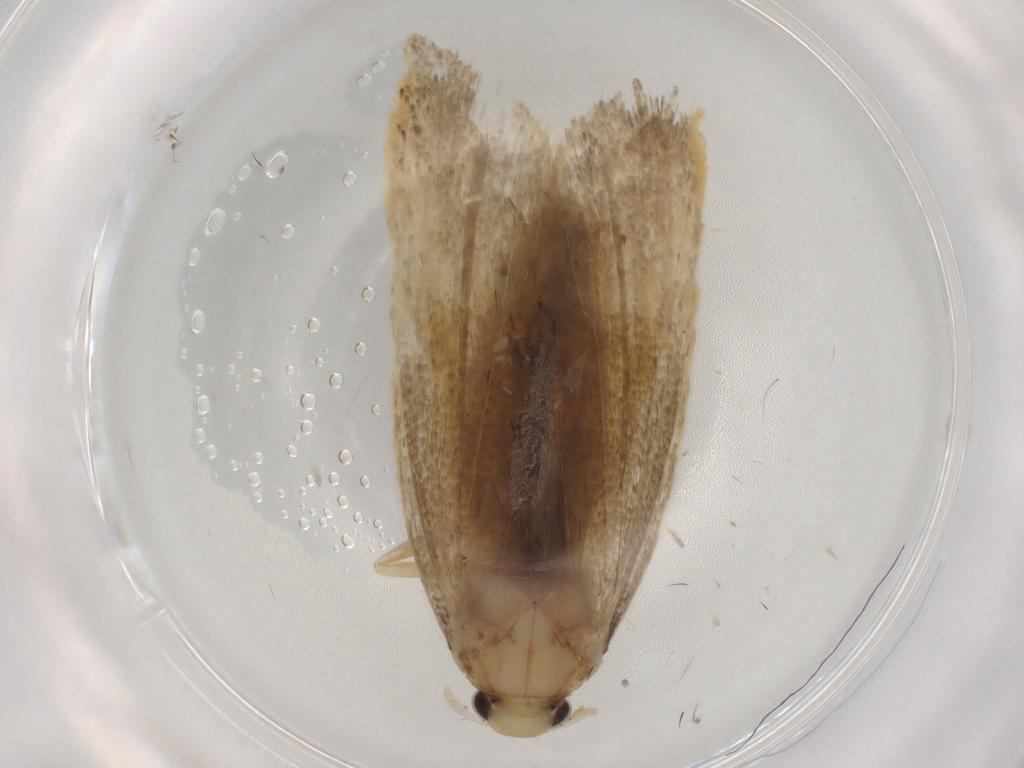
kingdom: Animalia
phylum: Arthropoda
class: Insecta
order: Lepidoptera
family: Lecithoceridae
